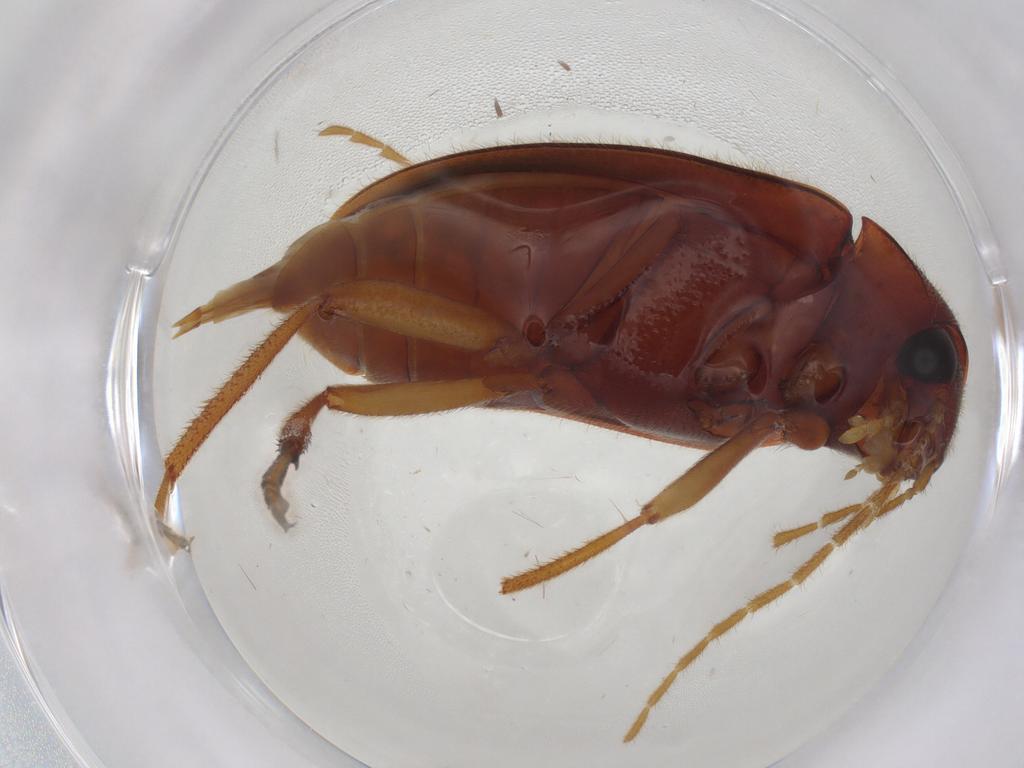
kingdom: Animalia
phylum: Arthropoda
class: Insecta
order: Coleoptera
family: Ptilodactylidae
